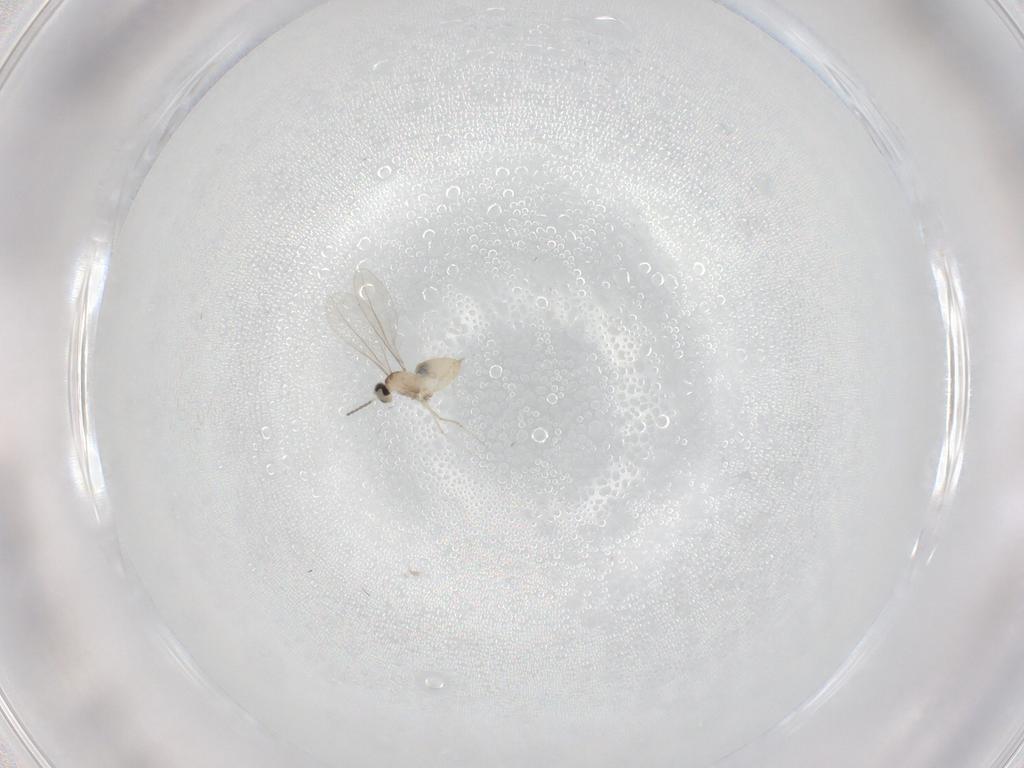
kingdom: Animalia
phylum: Arthropoda
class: Insecta
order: Diptera
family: Cecidomyiidae
